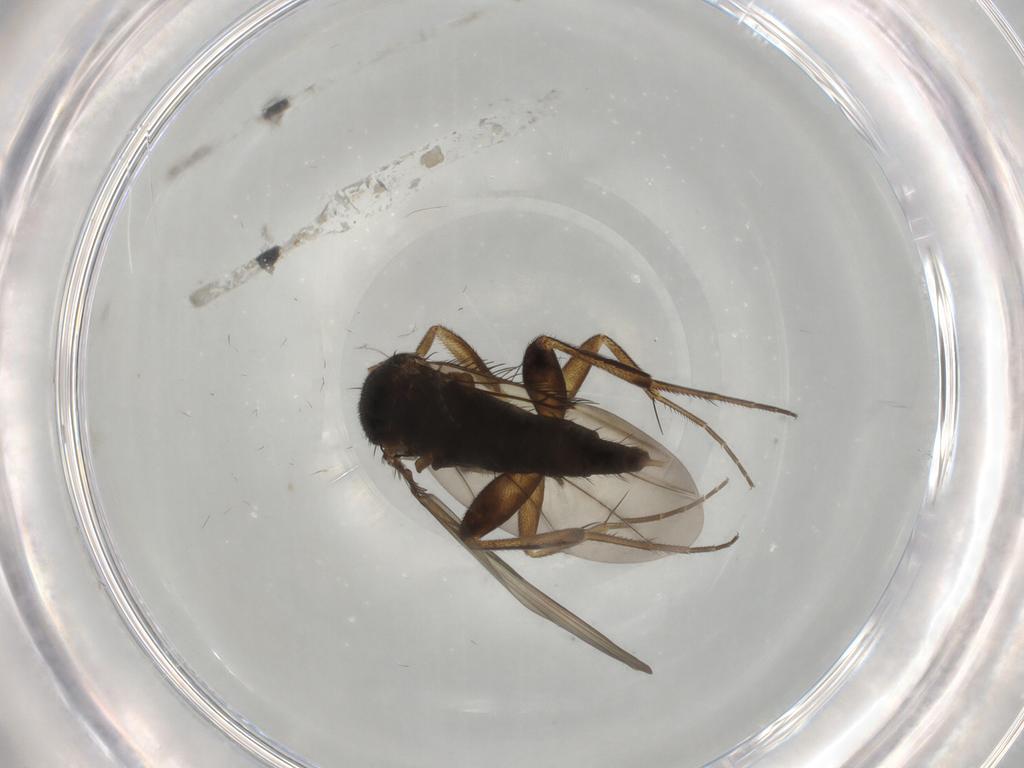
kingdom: Animalia
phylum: Arthropoda
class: Insecta
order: Diptera
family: Phoridae
